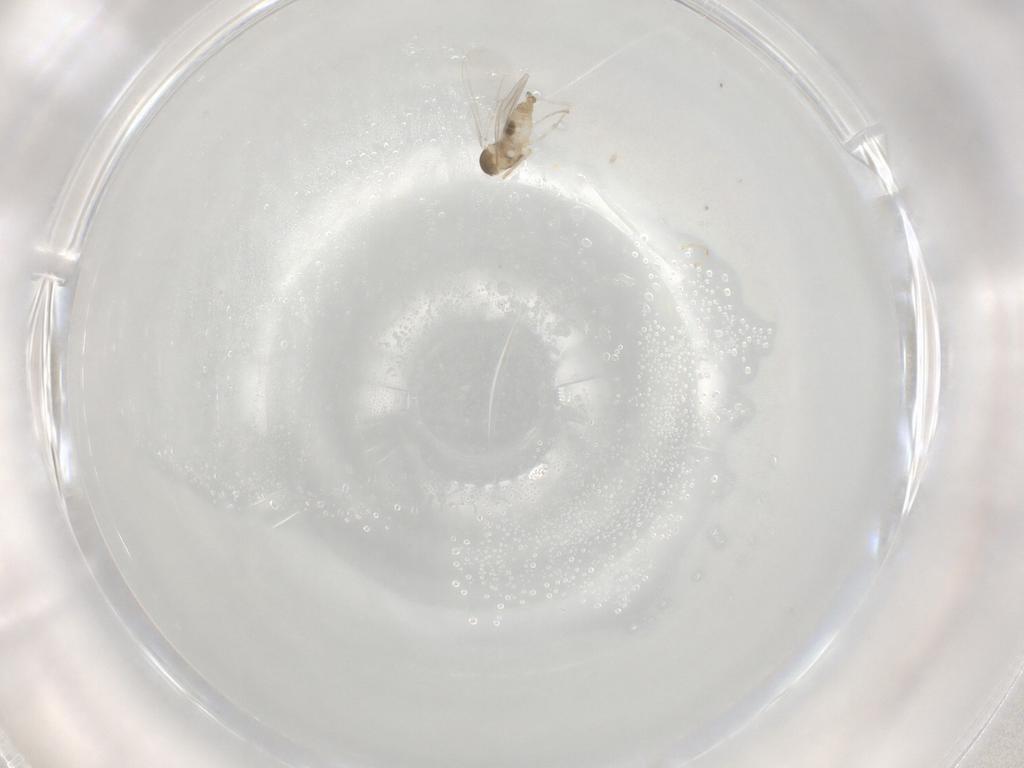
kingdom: Animalia
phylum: Arthropoda
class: Insecta
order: Diptera
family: Cecidomyiidae
